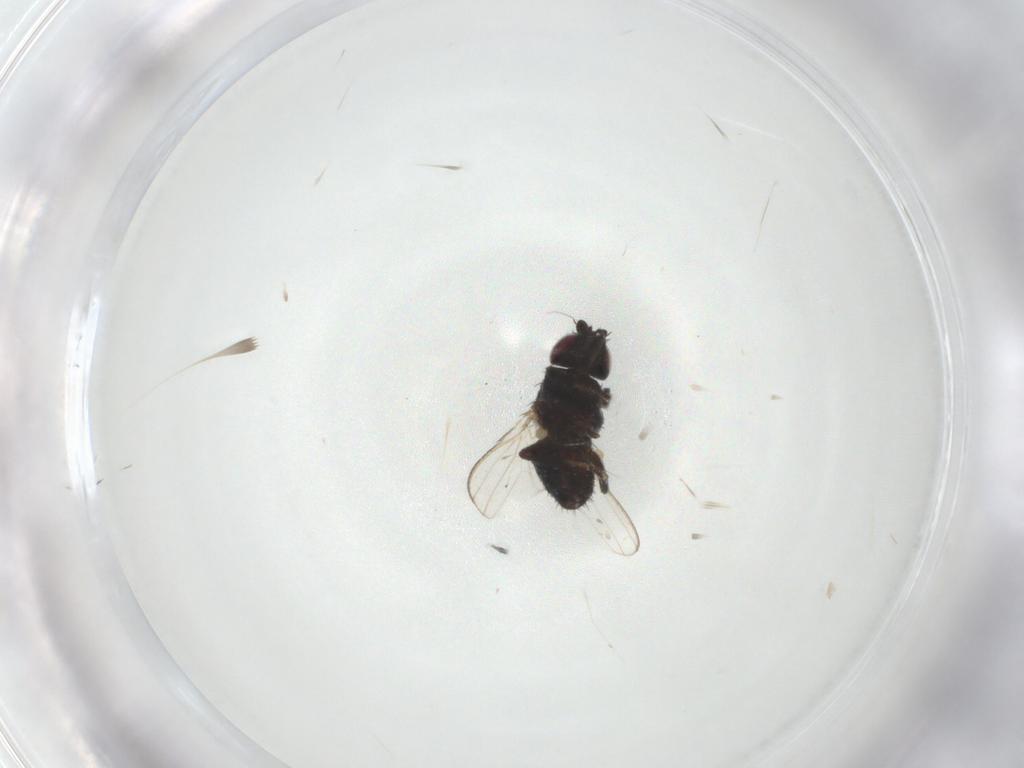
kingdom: Animalia
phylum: Arthropoda
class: Insecta
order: Diptera
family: Milichiidae
